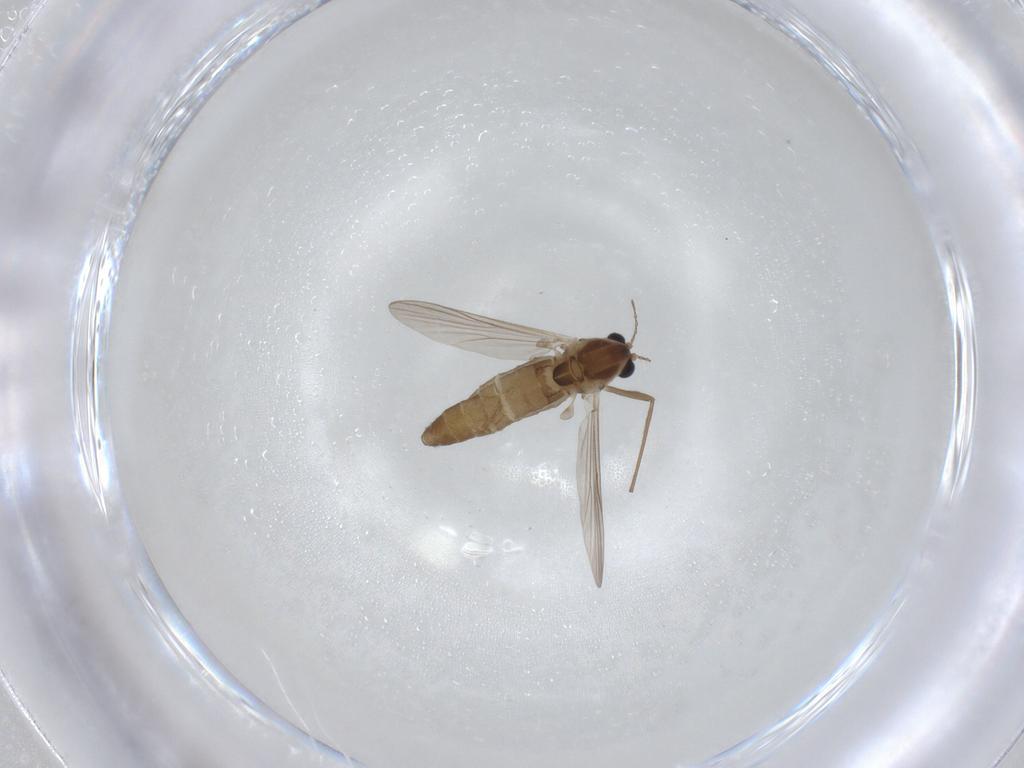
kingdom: Animalia
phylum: Arthropoda
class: Insecta
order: Diptera
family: Chironomidae
